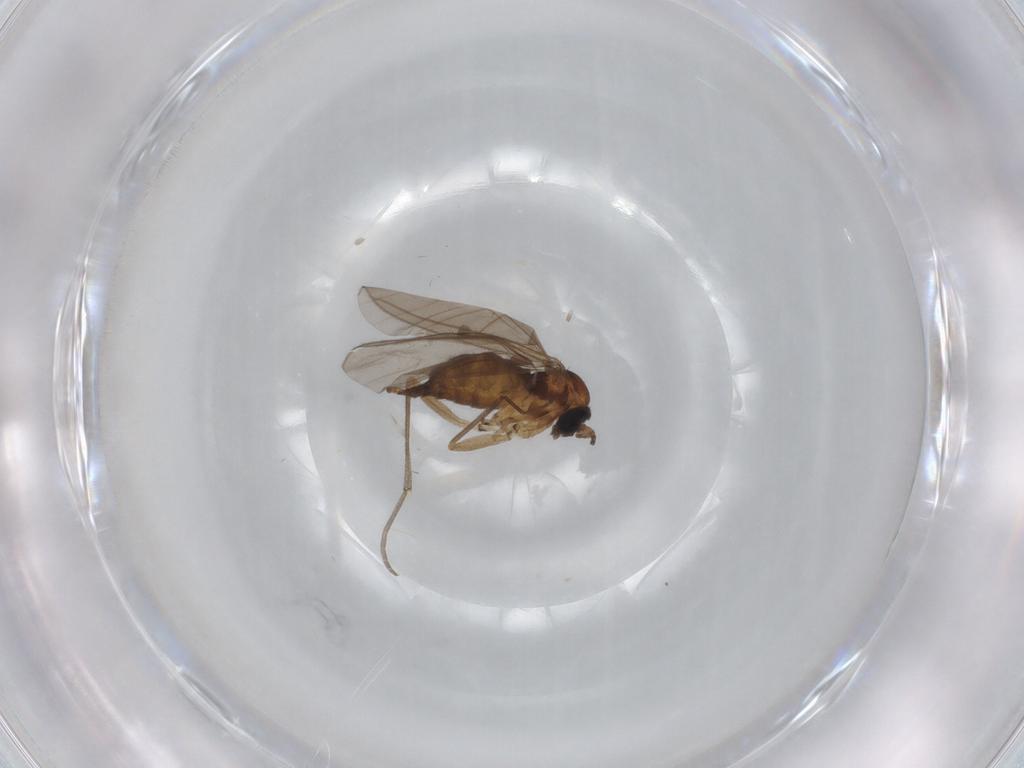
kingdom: Animalia
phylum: Arthropoda
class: Insecta
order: Diptera
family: Sciaridae
